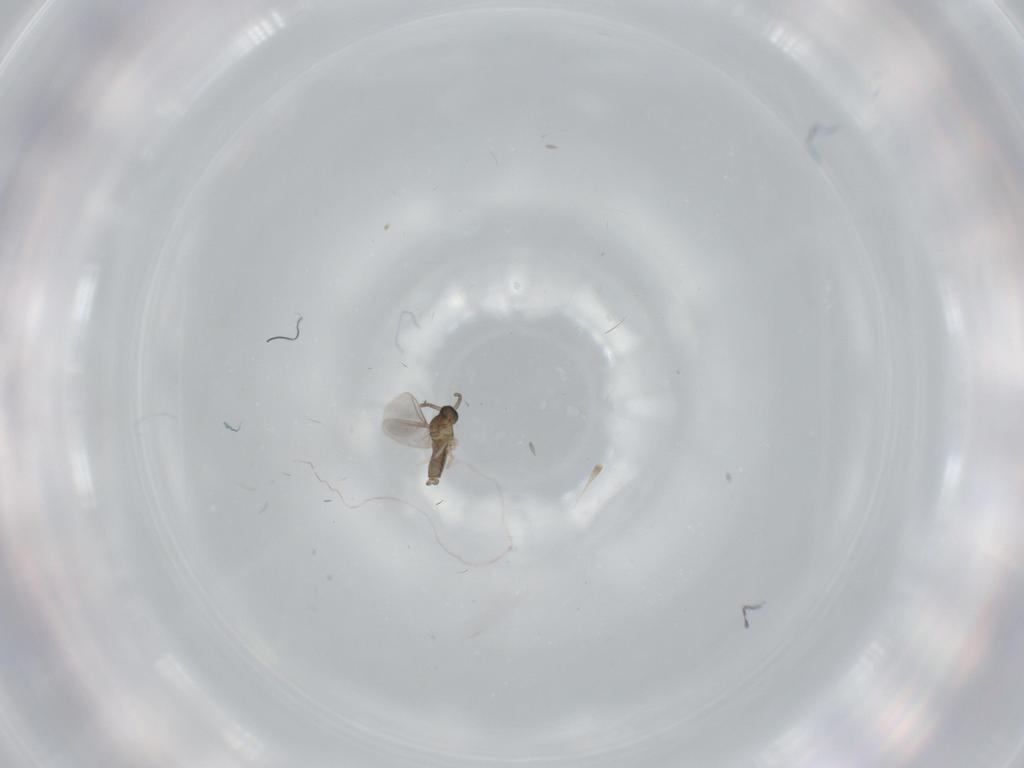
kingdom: Animalia
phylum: Arthropoda
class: Insecta
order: Diptera
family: Cecidomyiidae
